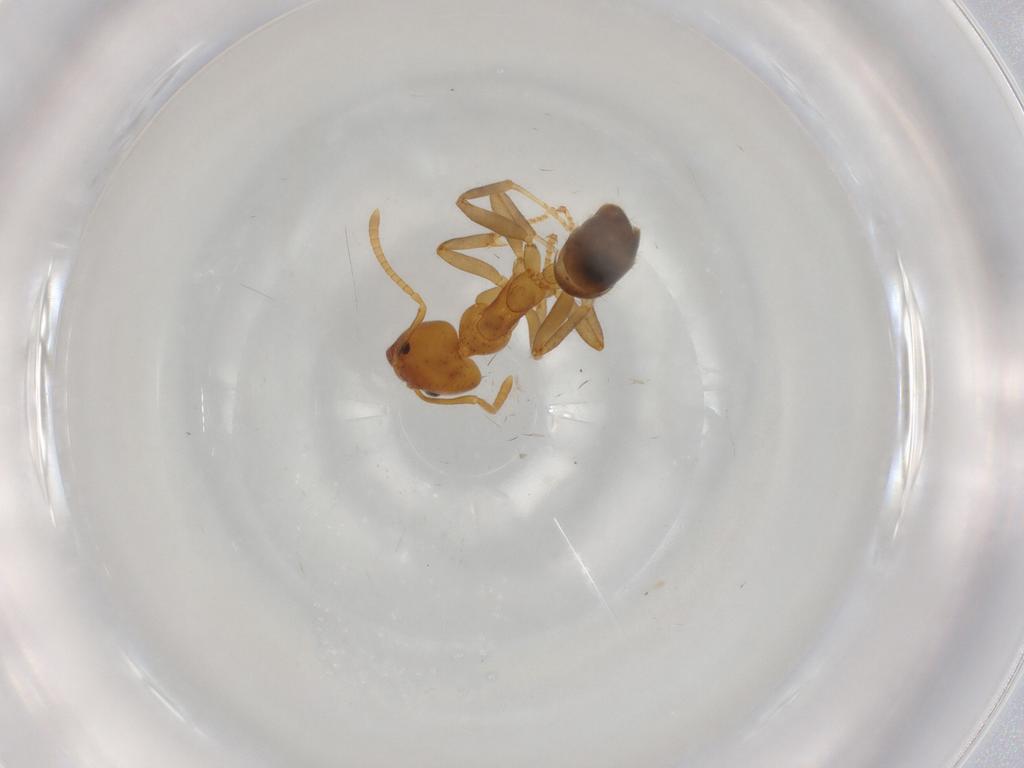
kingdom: Animalia
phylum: Arthropoda
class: Insecta
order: Hymenoptera
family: Formicidae
